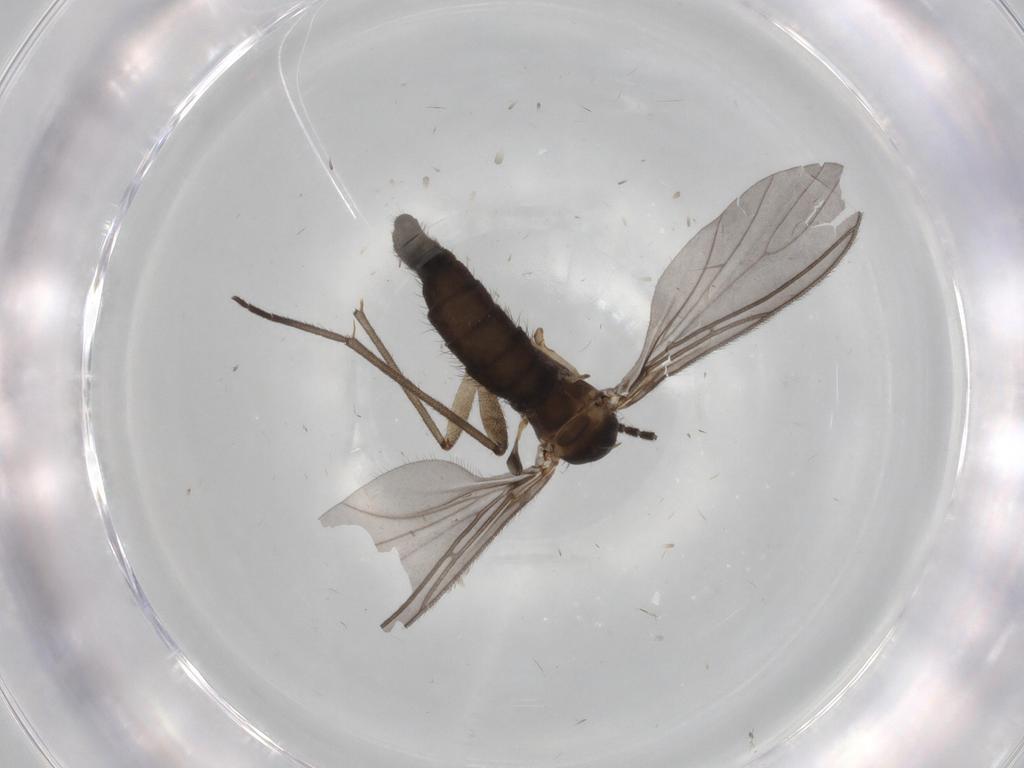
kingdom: Animalia
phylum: Arthropoda
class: Insecta
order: Diptera
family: Sciaridae
